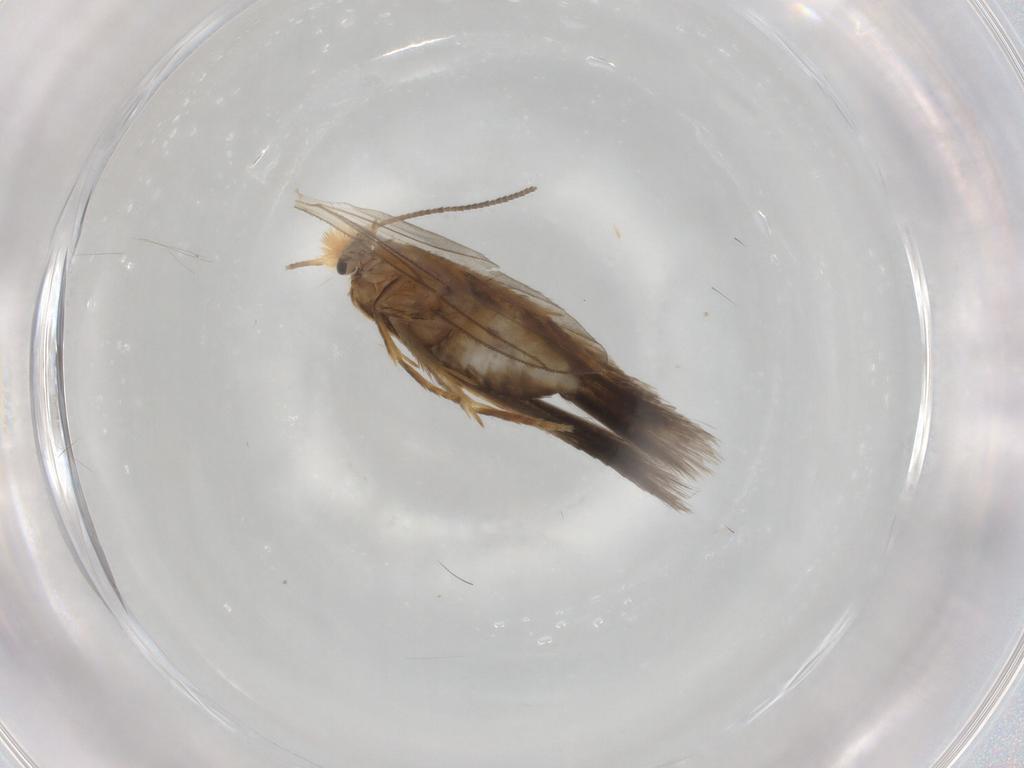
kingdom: Animalia
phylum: Arthropoda
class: Insecta
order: Lepidoptera
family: Nepticulidae
